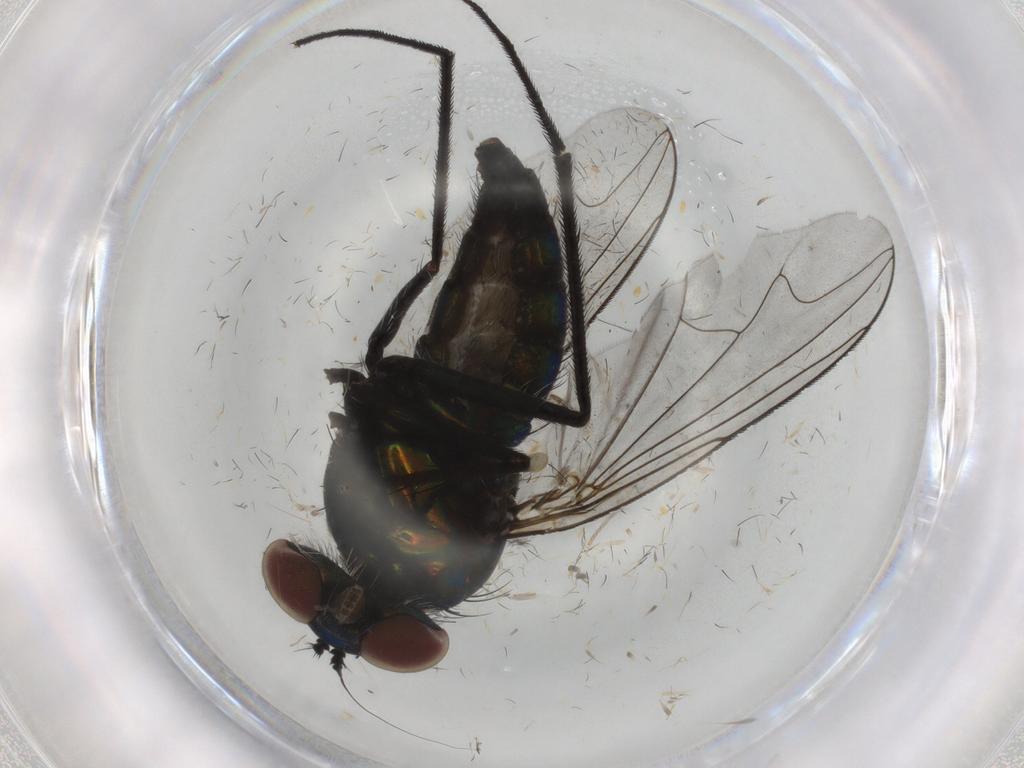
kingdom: Animalia
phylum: Arthropoda
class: Insecta
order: Diptera
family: Dolichopodidae
